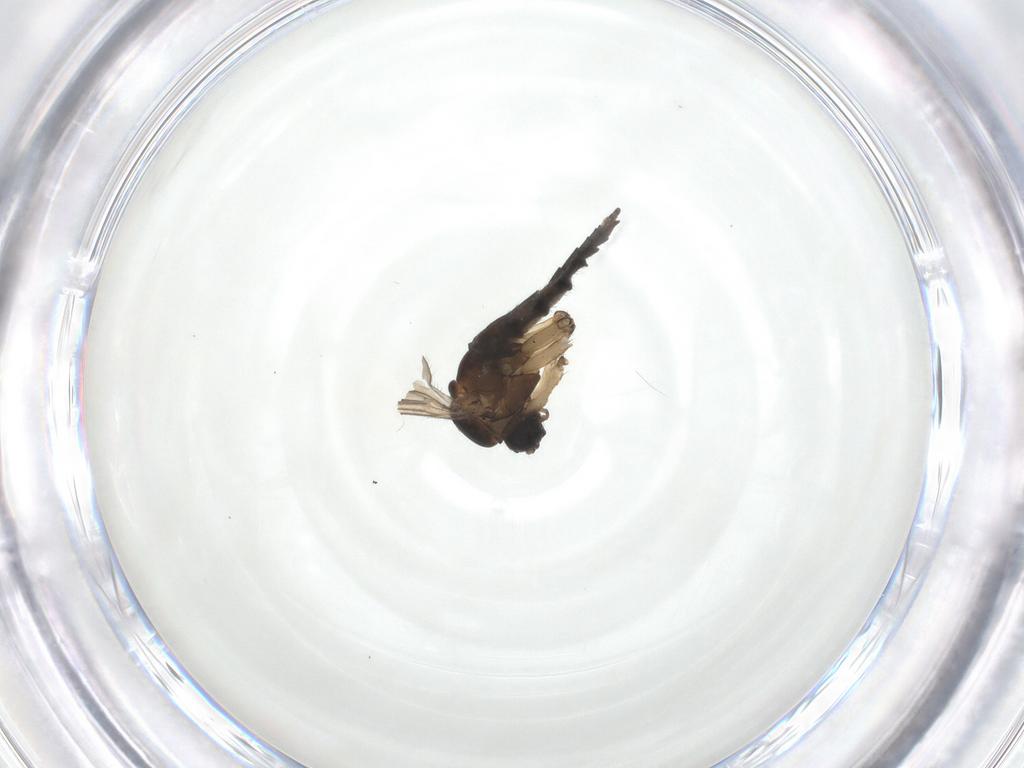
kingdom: Animalia
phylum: Arthropoda
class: Insecta
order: Diptera
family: Sciaridae
